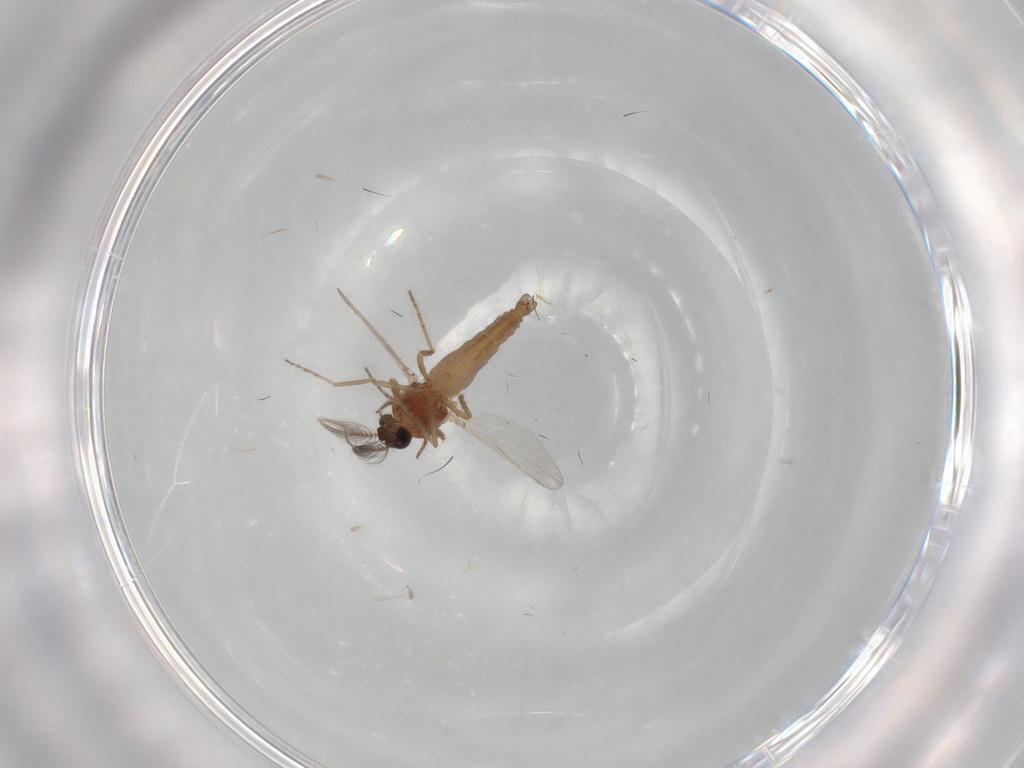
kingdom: Animalia
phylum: Arthropoda
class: Insecta
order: Diptera
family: Ceratopogonidae
